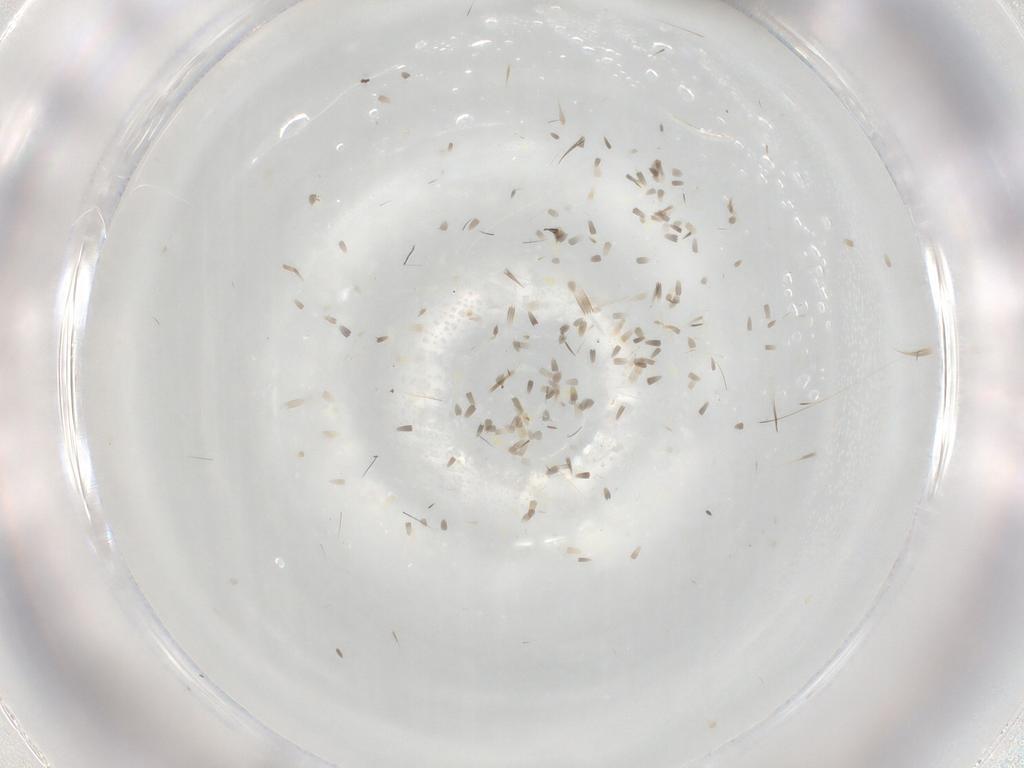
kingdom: Animalia
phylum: Arthropoda
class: Insecta
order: Thysanoptera
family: Phlaeothripidae
